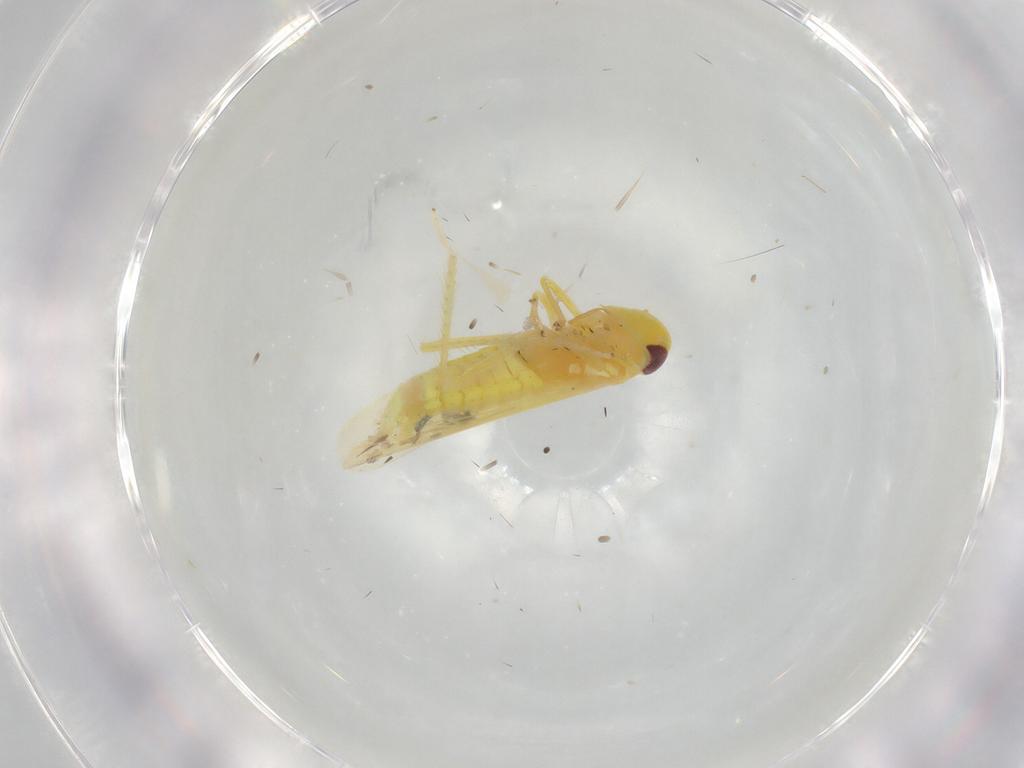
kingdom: Animalia
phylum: Arthropoda
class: Insecta
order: Hemiptera
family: Cicadellidae
